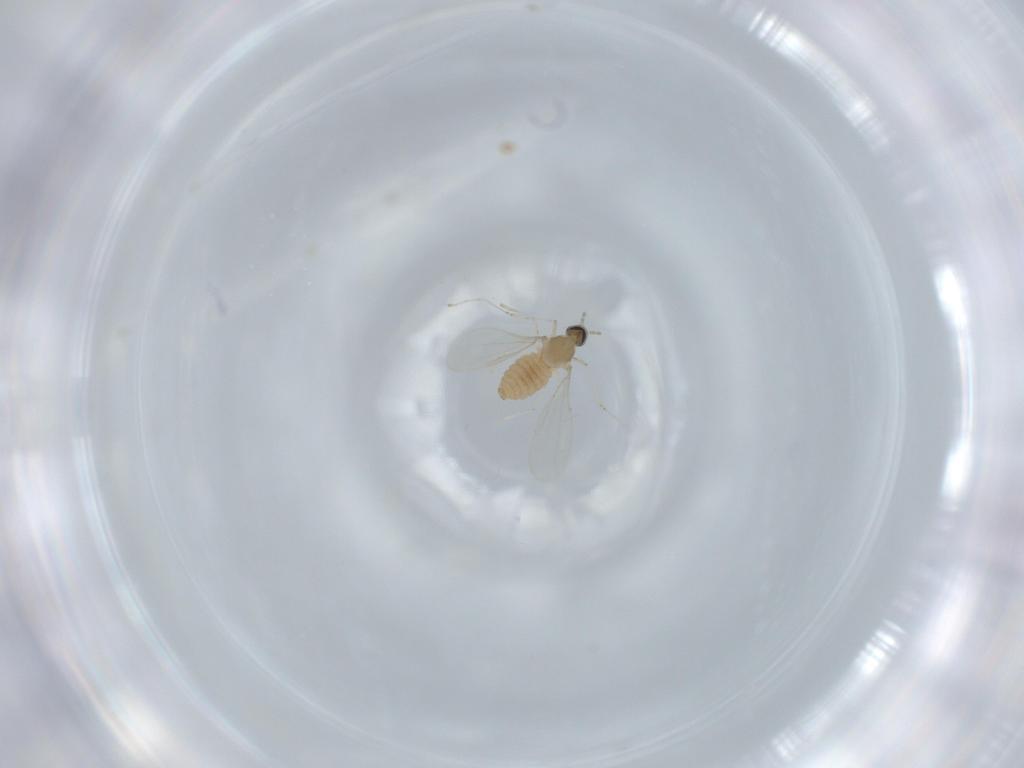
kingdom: Animalia
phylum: Arthropoda
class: Insecta
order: Diptera
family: Cecidomyiidae
